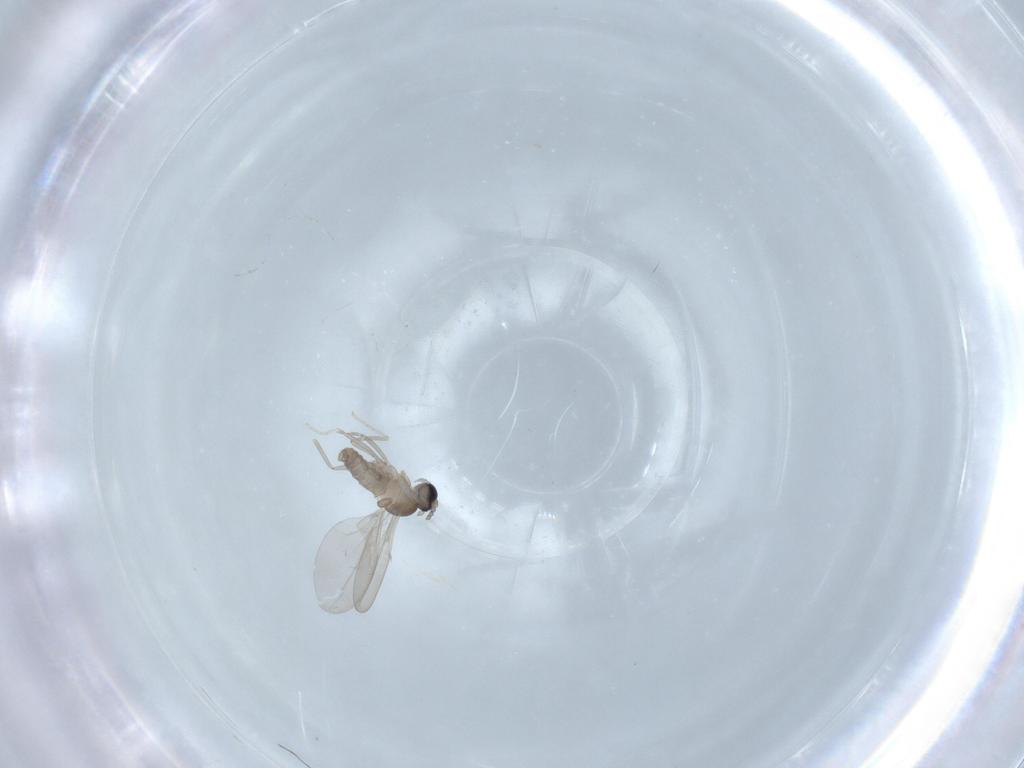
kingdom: Animalia
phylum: Arthropoda
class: Insecta
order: Diptera
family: Cecidomyiidae
